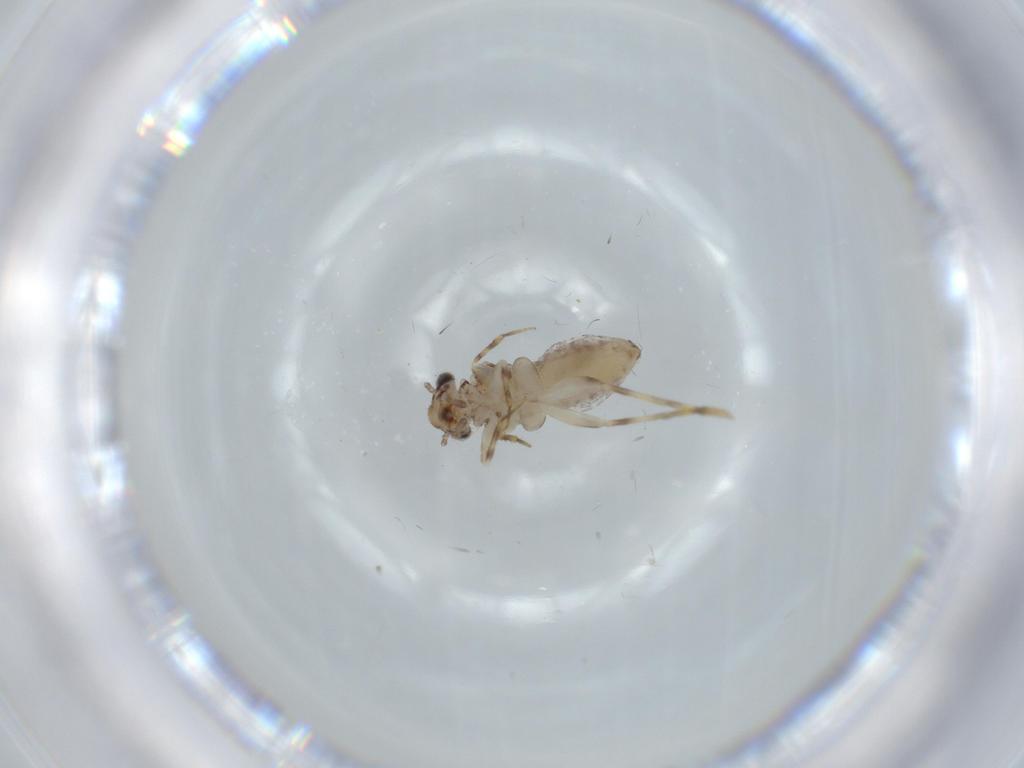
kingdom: Animalia
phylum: Arthropoda
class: Insecta
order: Psocodea
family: Lepidopsocidae
